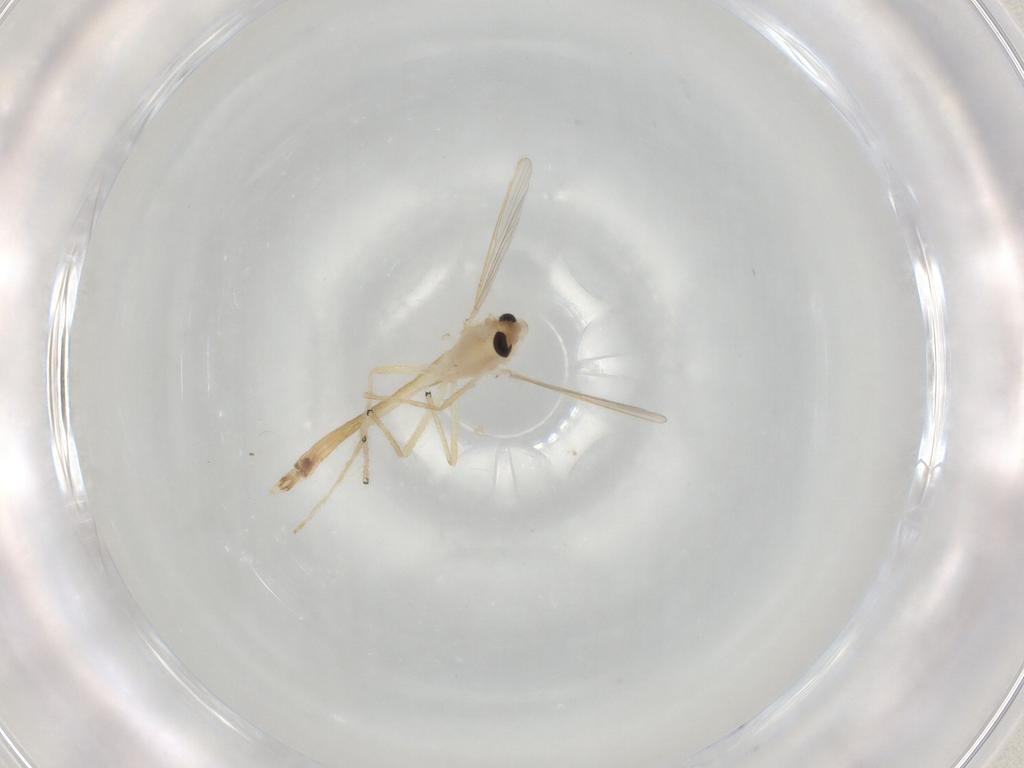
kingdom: Animalia
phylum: Arthropoda
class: Insecta
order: Diptera
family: Chironomidae
